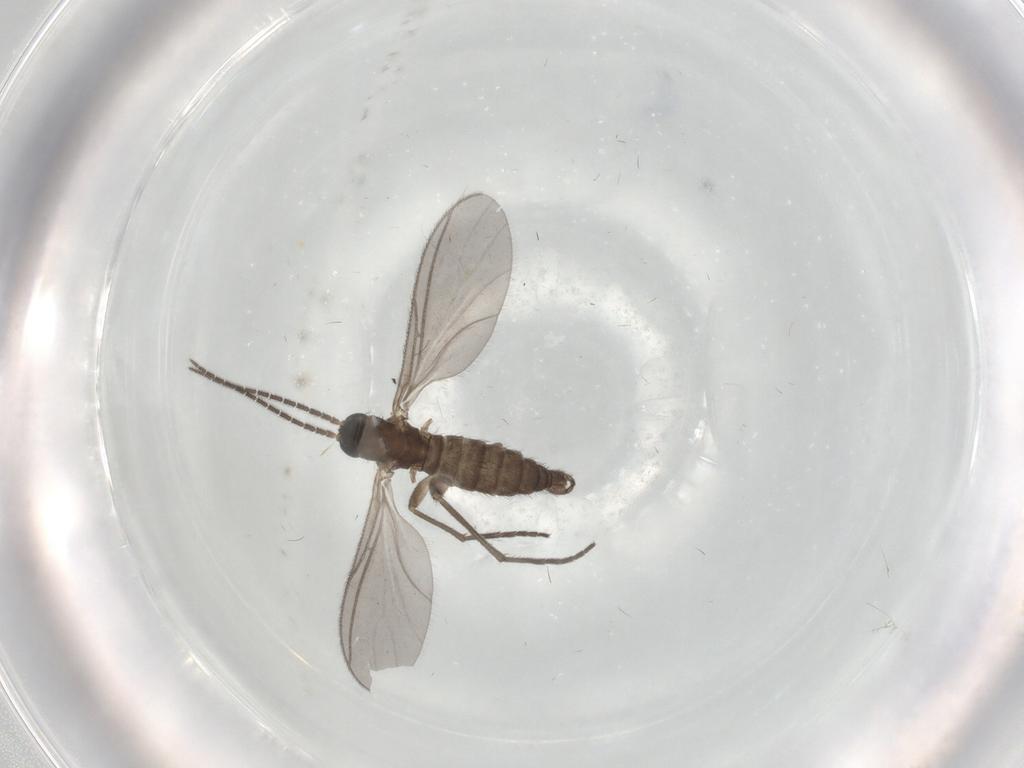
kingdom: Animalia
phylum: Arthropoda
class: Insecta
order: Diptera
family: Sciaridae
